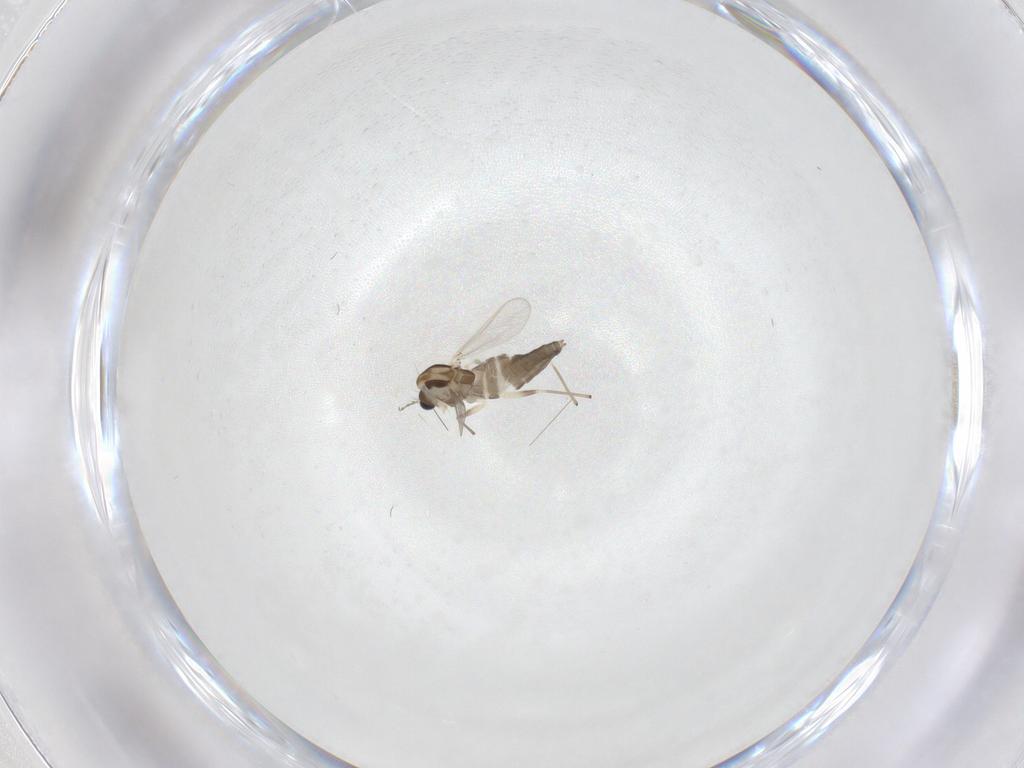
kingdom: Animalia
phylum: Arthropoda
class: Insecta
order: Diptera
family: Chironomidae
